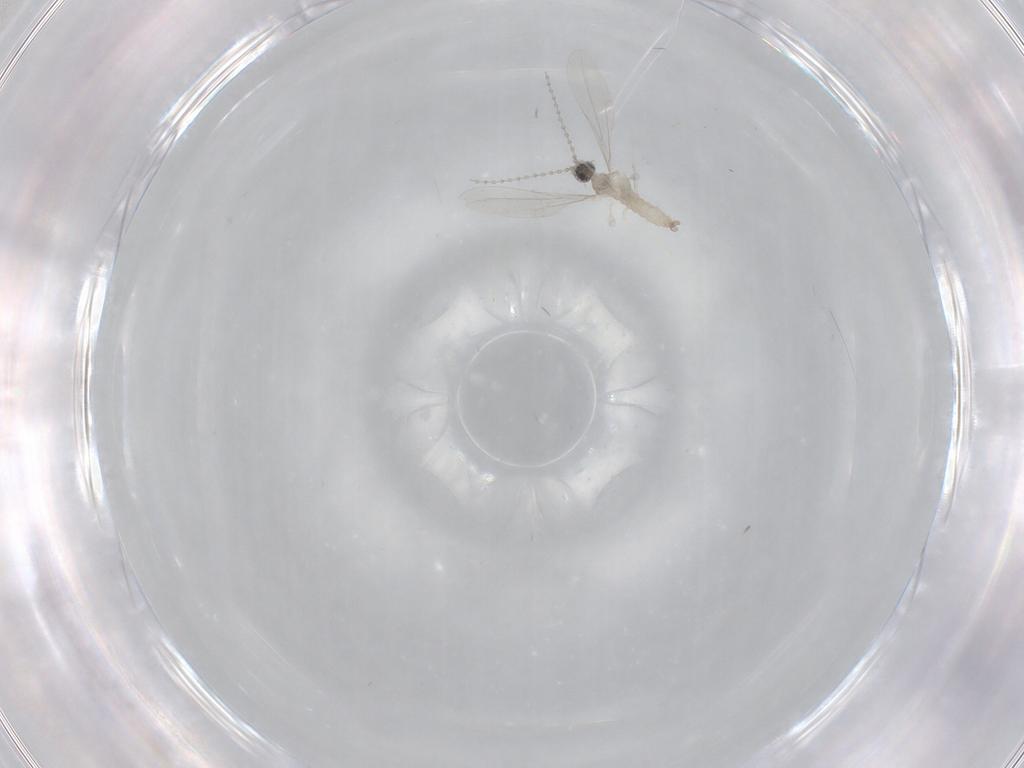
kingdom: Animalia
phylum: Arthropoda
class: Insecta
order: Diptera
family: Cecidomyiidae
